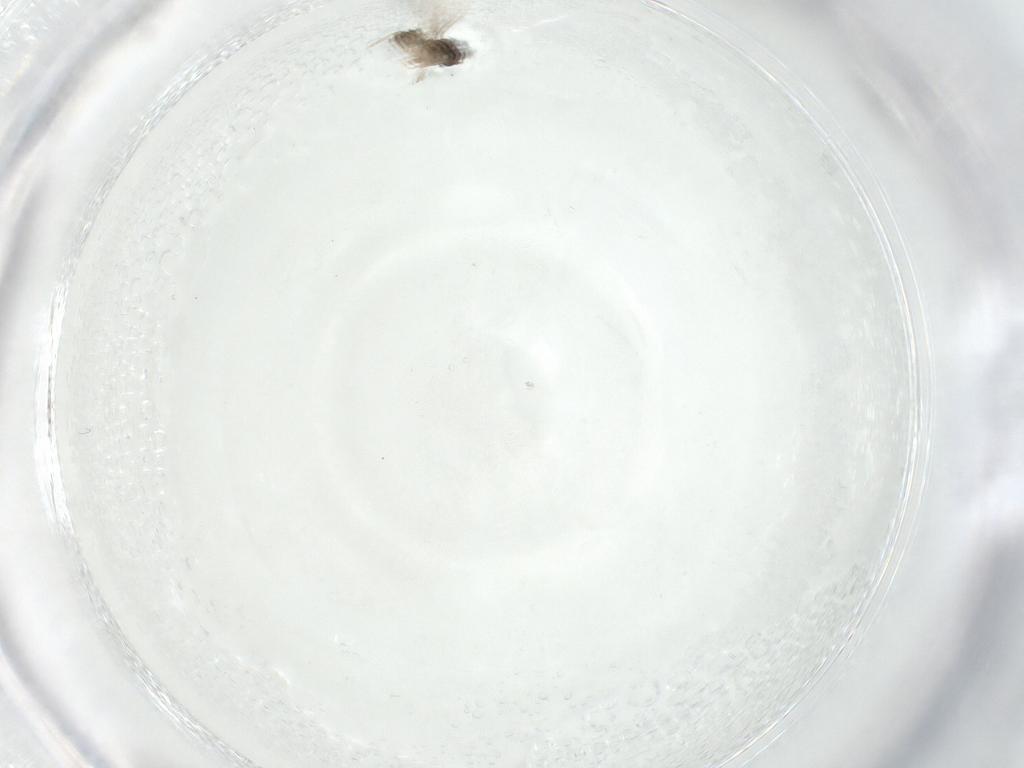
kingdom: Animalia
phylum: Arthropoda
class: Insecta
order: Diptera
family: Cecidomyiidae
